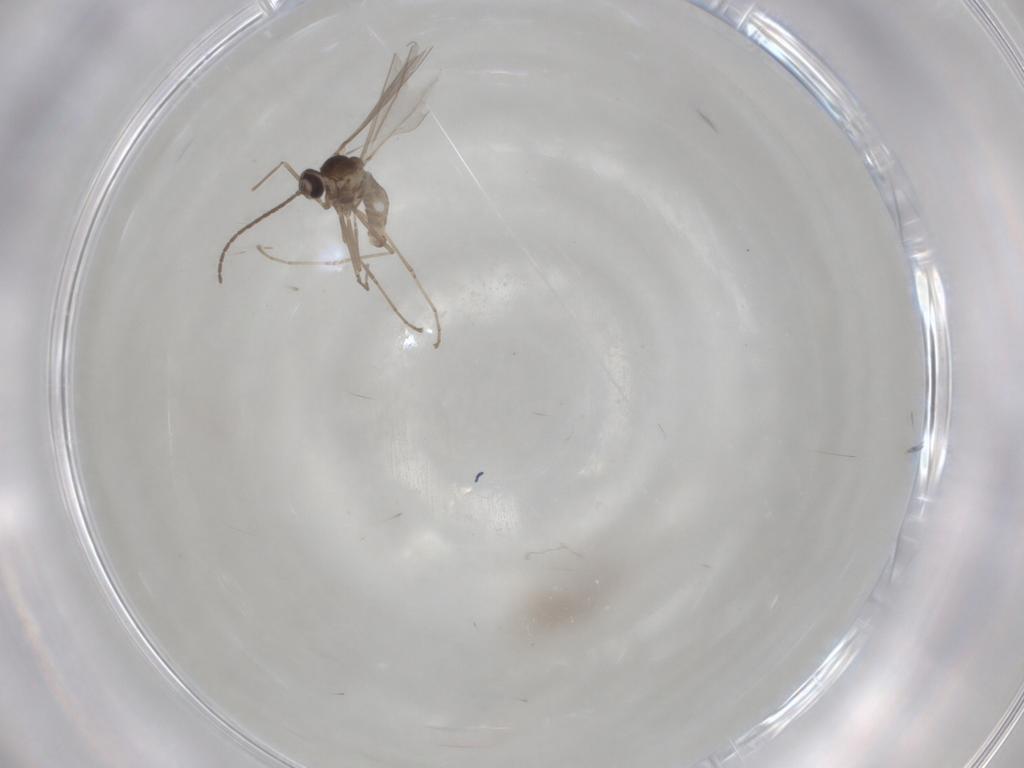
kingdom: Animalia
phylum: Arthropoda
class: Insecta
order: Diptera
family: Cecidomyiidae
